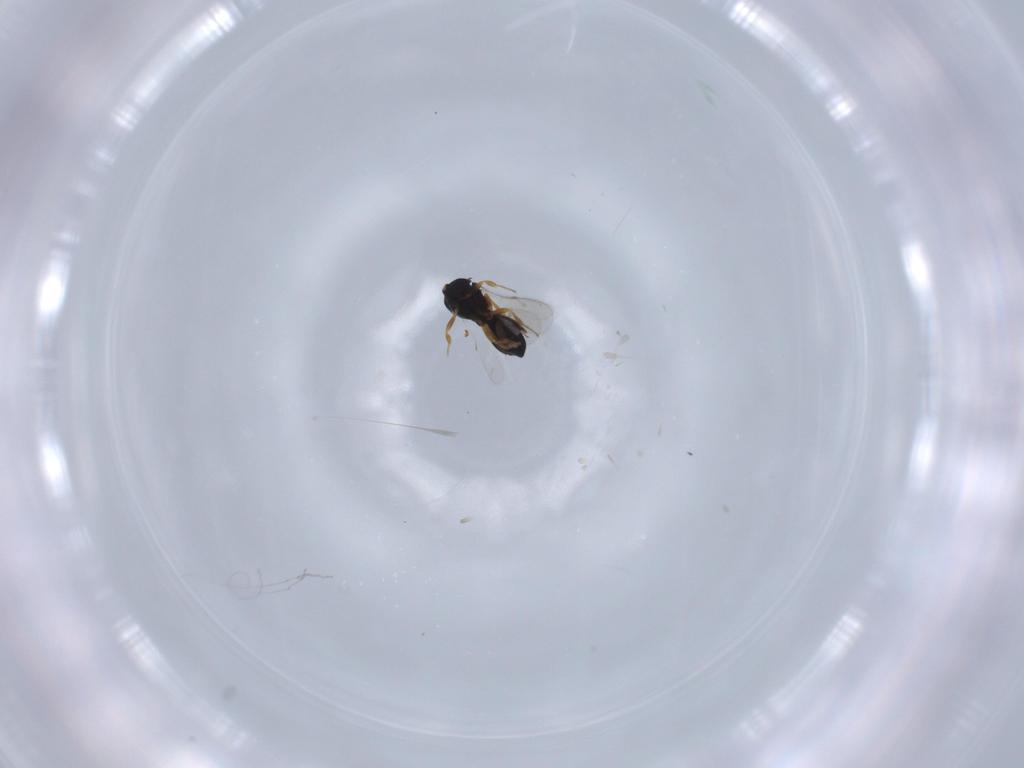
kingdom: Animalia
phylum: Arthropoda
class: Insecta
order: Hymenoptera
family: Scelionidae
